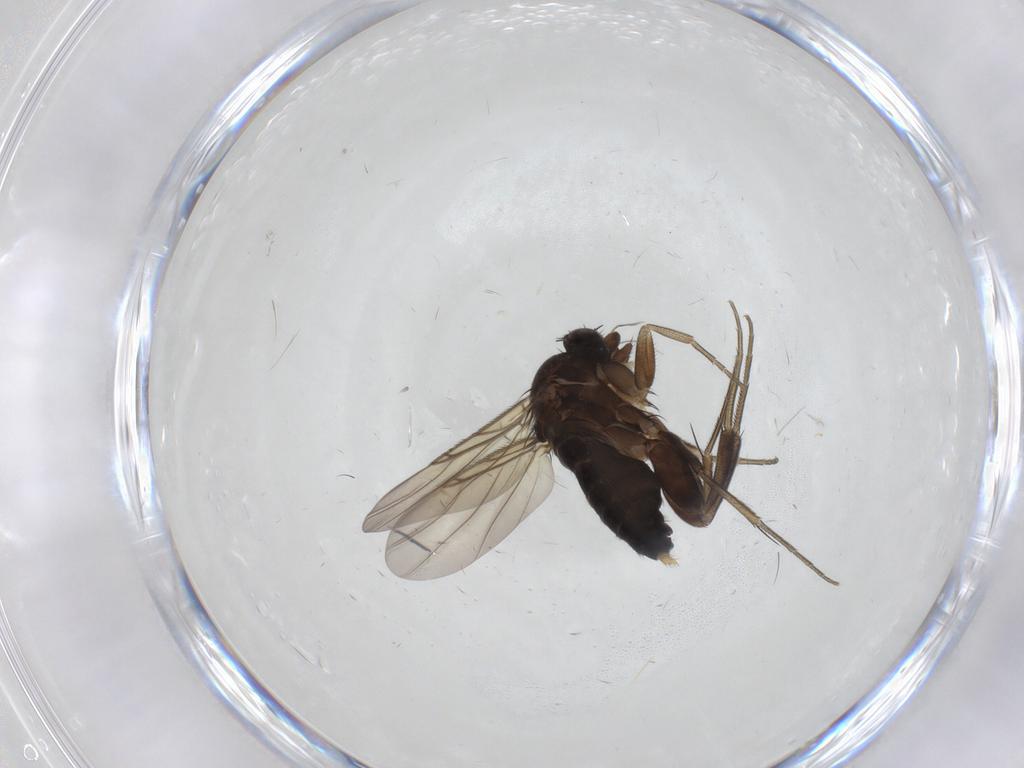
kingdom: Animalia
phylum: Arthropoda
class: Insecta
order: Diptera
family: Phoridae
